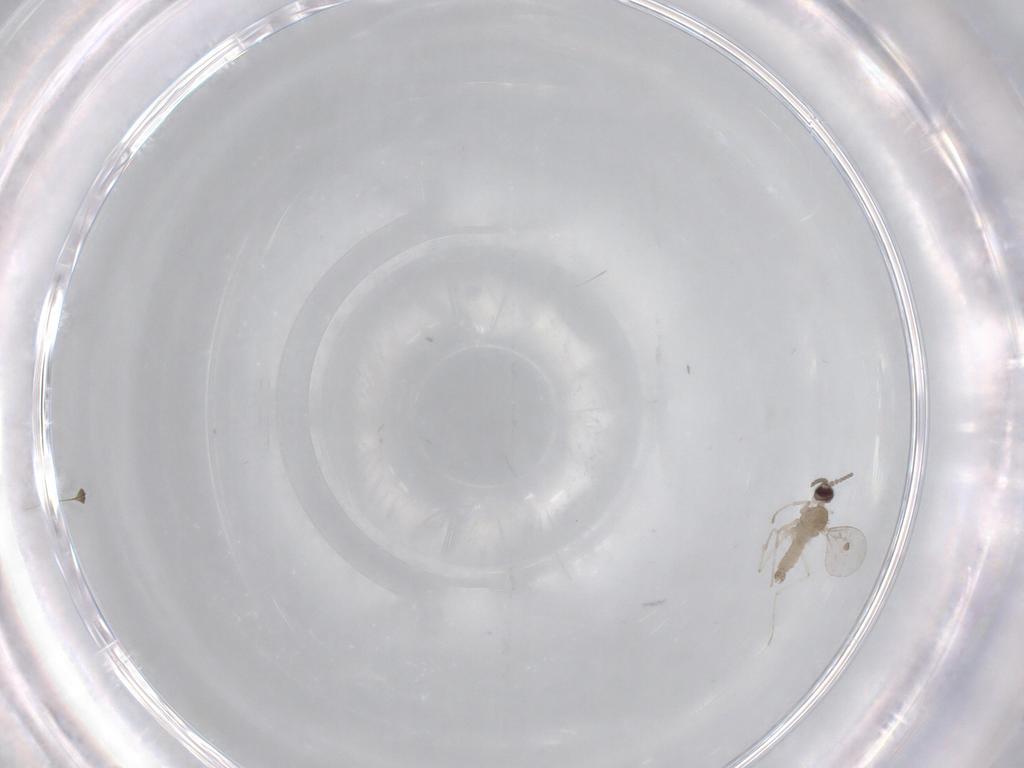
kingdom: Animalia
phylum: Arthropoda
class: Insecta
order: Diptera
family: Cecidomyiidae
